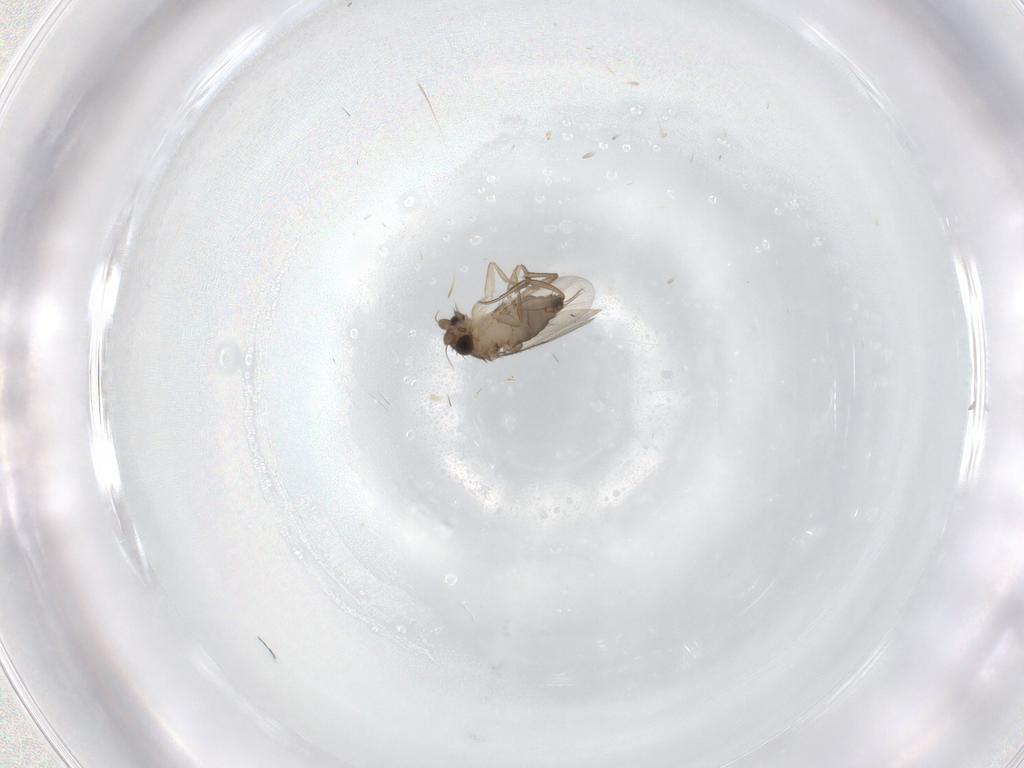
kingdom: Animalia
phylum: Arthropoda
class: Insecta
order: Diptera
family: Phoridae
